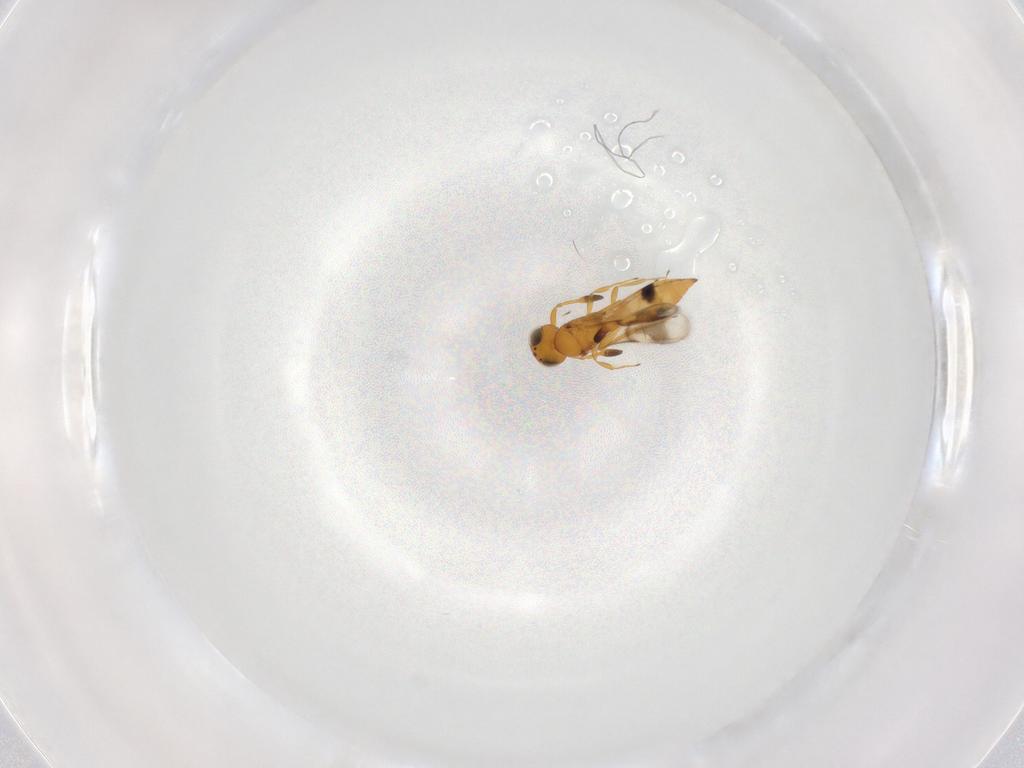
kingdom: Animalia
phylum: Arthropoda
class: Insecta
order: Hymenoptera
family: Scelionidae
